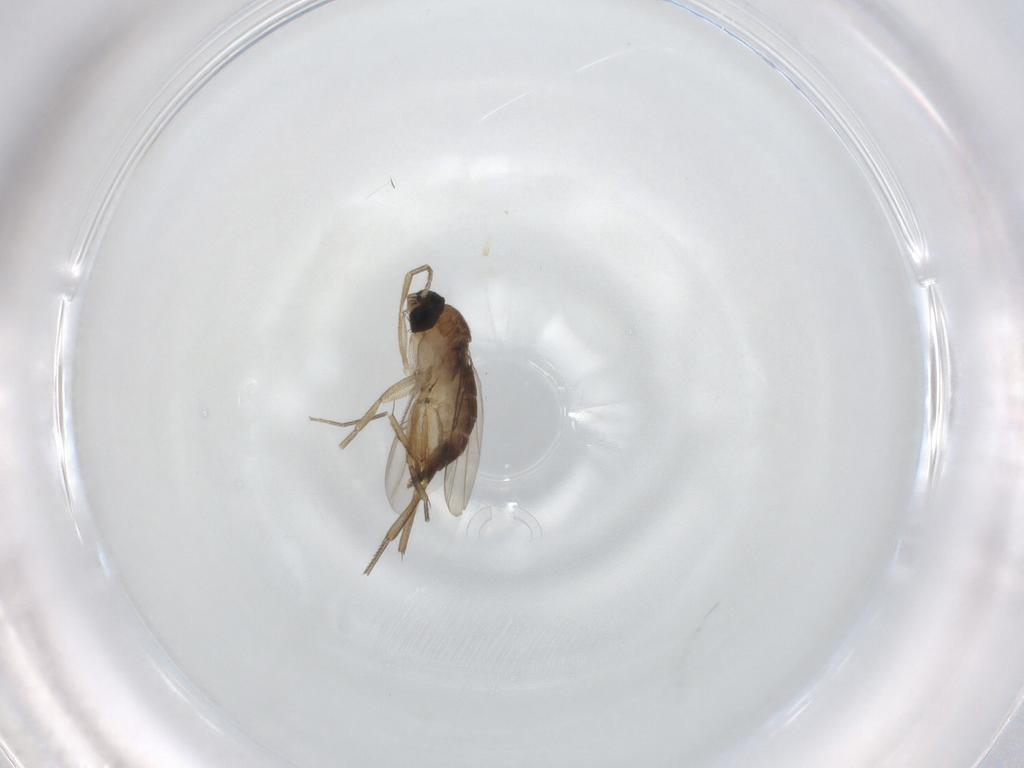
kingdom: Animalia
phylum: Arthropoda
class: Insecta
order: Diptera
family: Phoridae
